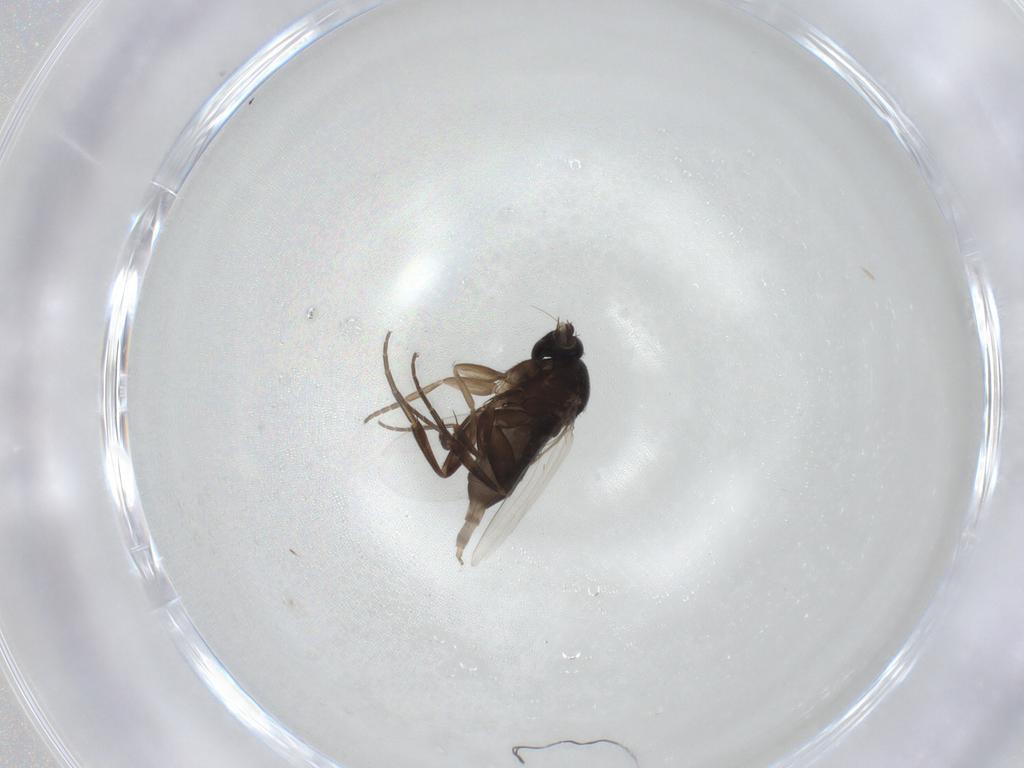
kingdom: Animalia
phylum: Arthropoda
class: Insecta
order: Diptera
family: Phoridae
